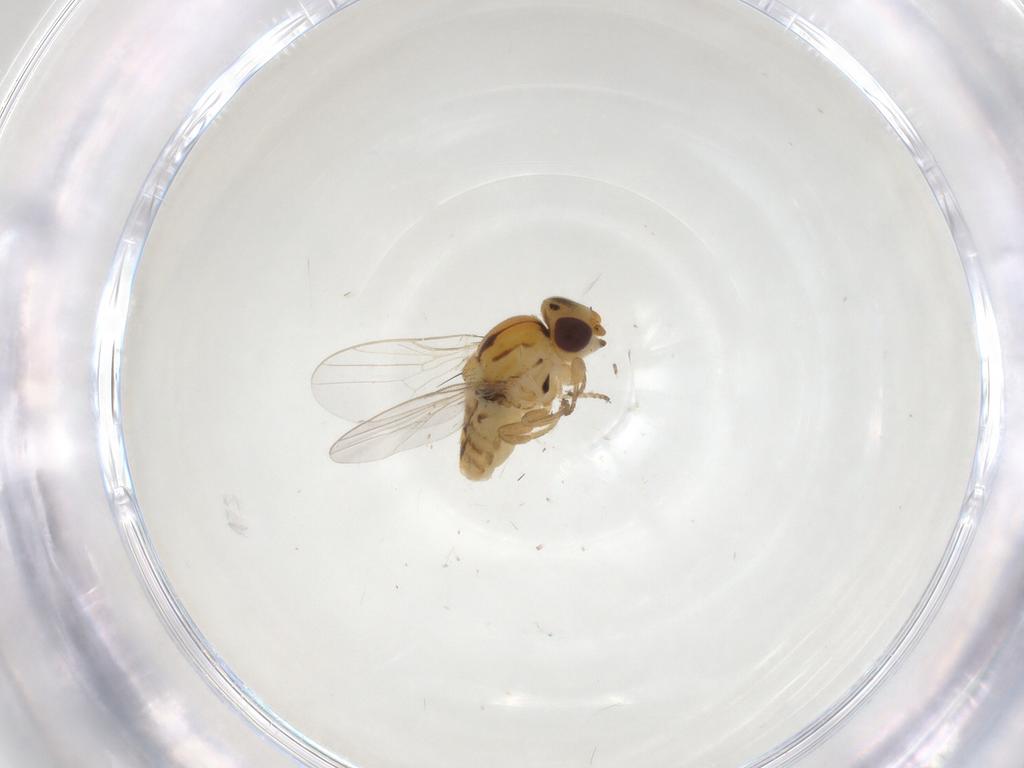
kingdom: Animalia
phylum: Arthropoda
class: Insecta
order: Diptera
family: Chloropidae
